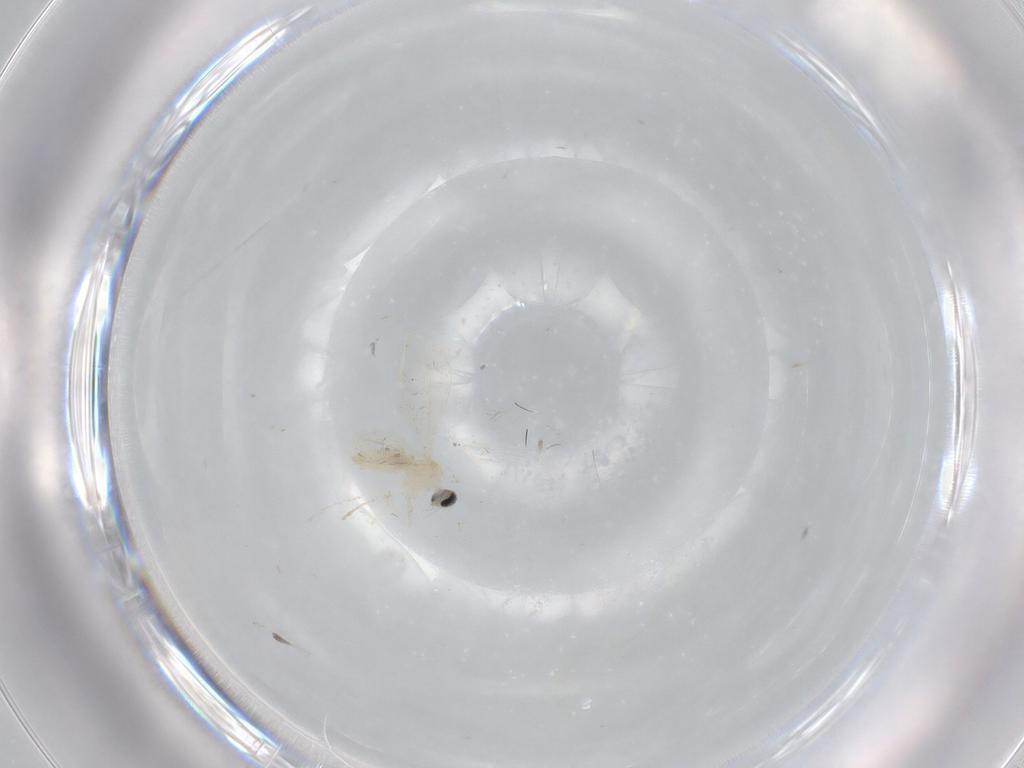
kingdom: Animalia
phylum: Arthropoda
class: Insecta
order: Diptera
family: Cecidomyiidae
